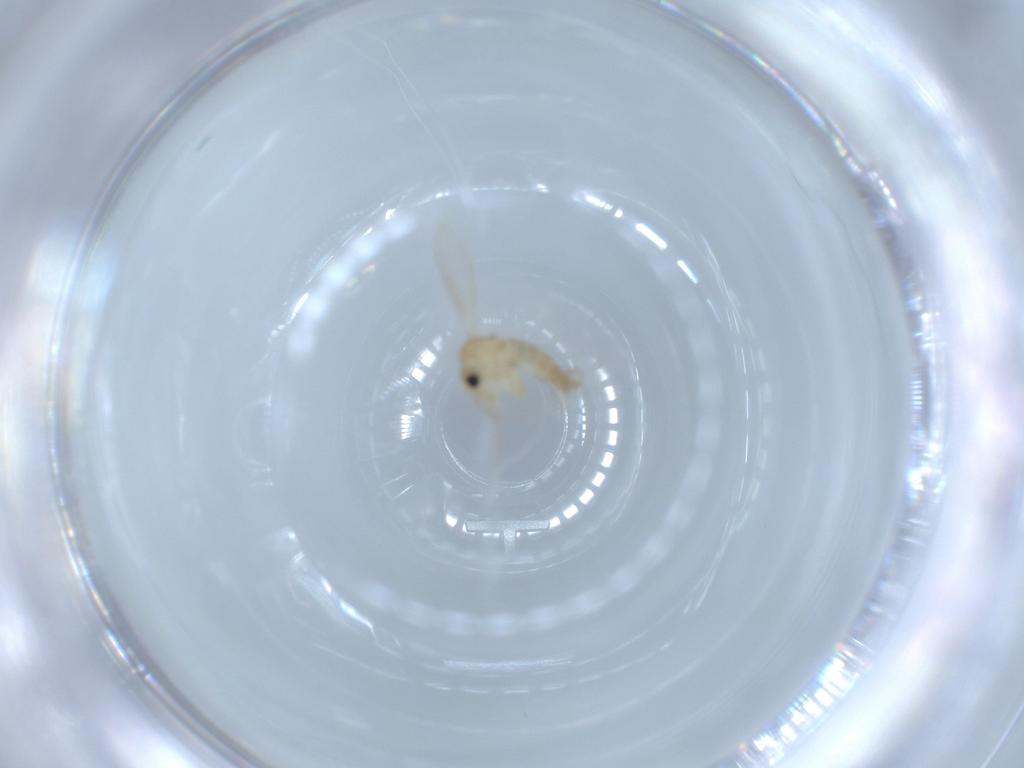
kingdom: Animalia
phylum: Arthropoda
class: Insecta
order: Diptera
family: Psychodidae
